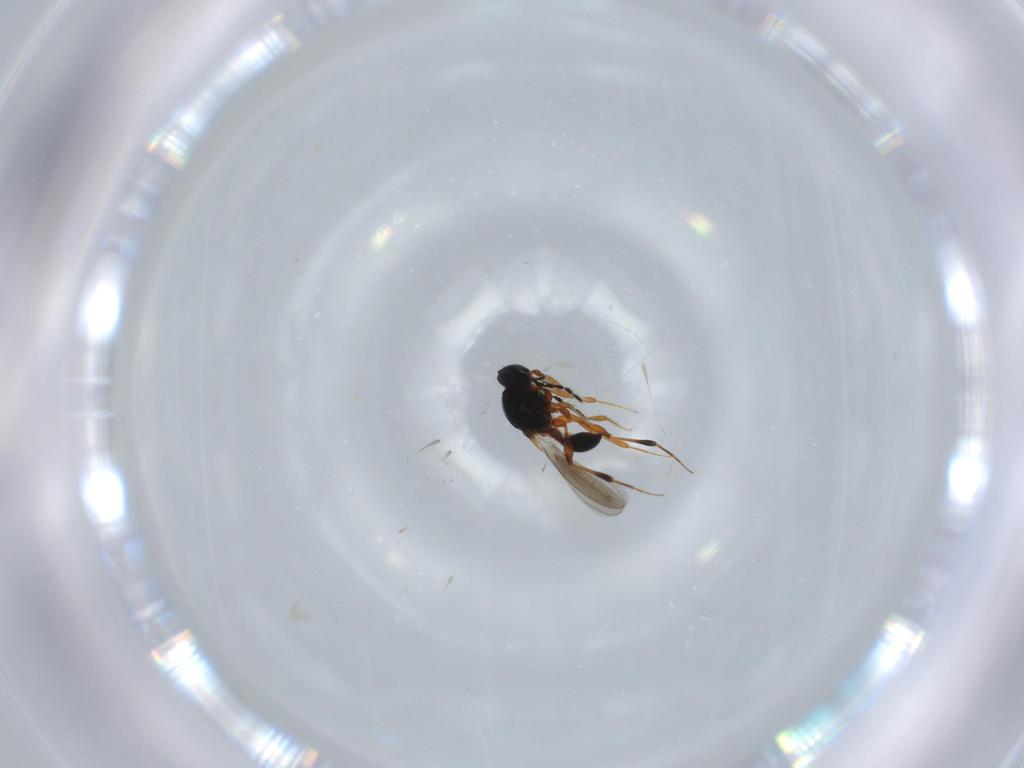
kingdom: Animalia
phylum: Arthropoda
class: Insecta
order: Hymenoptera
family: Platygastridae
